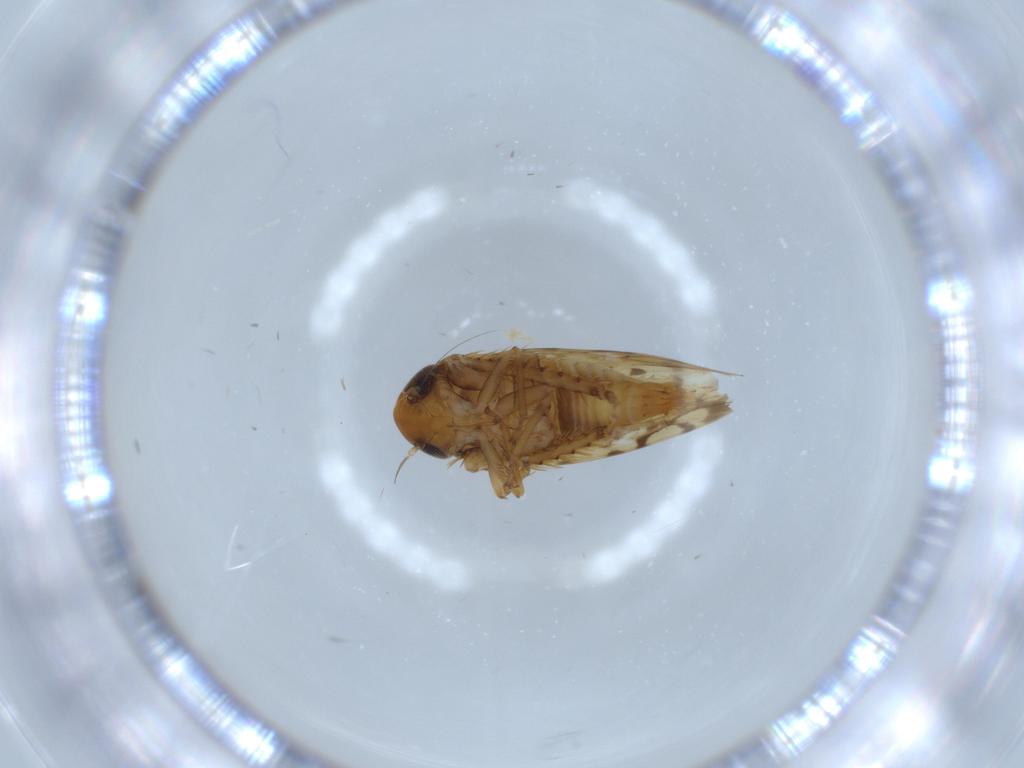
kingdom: Animalia
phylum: Arthropoda
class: Insecta
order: Hemiptera
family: Cicadellidae
